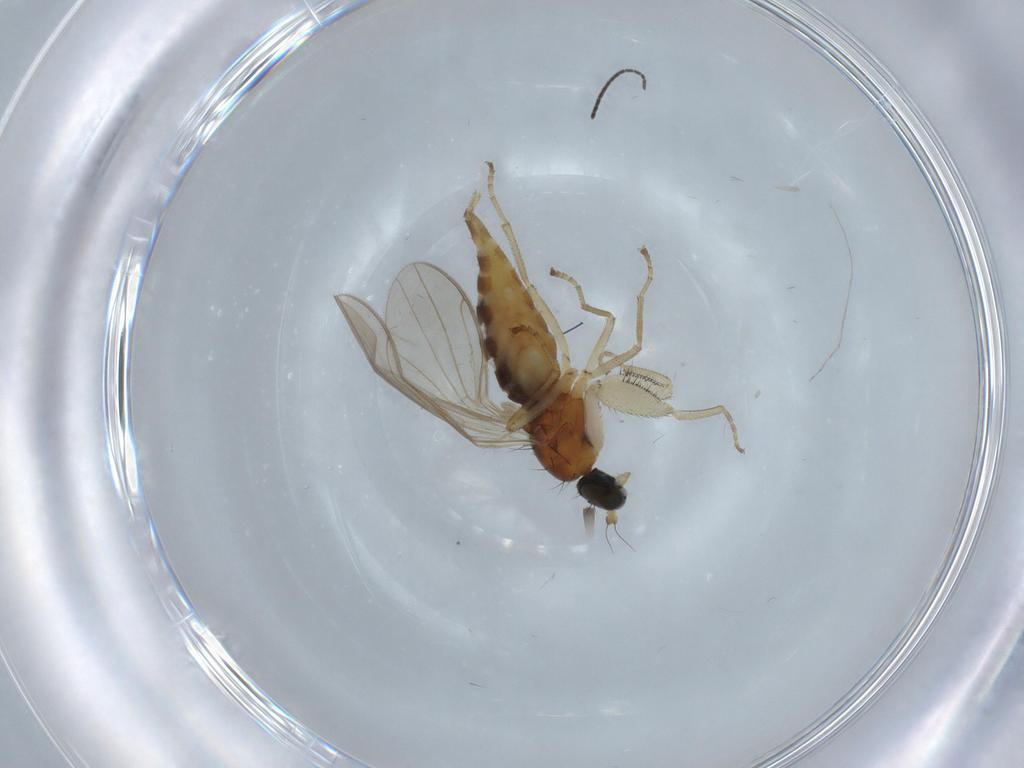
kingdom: Animalia
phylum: Arthropoda
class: Insecta
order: Diptera
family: Empididae
